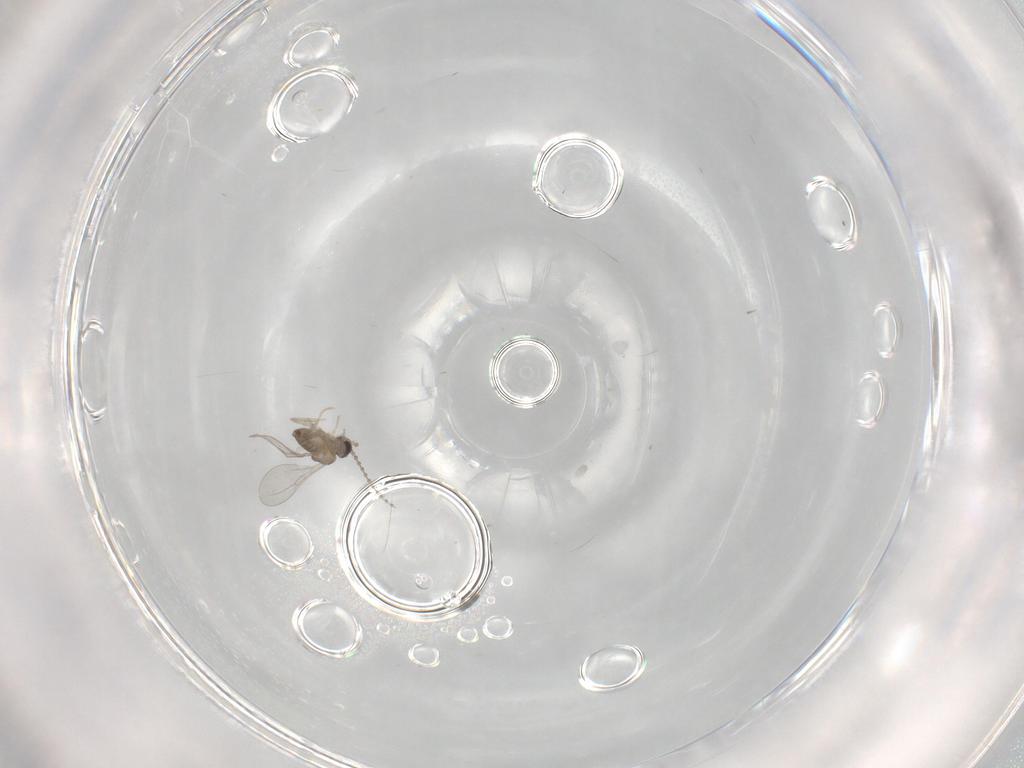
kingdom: Animalia
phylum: Arthropoda
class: Insecta
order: Diptera
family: Cecidomyiidae
